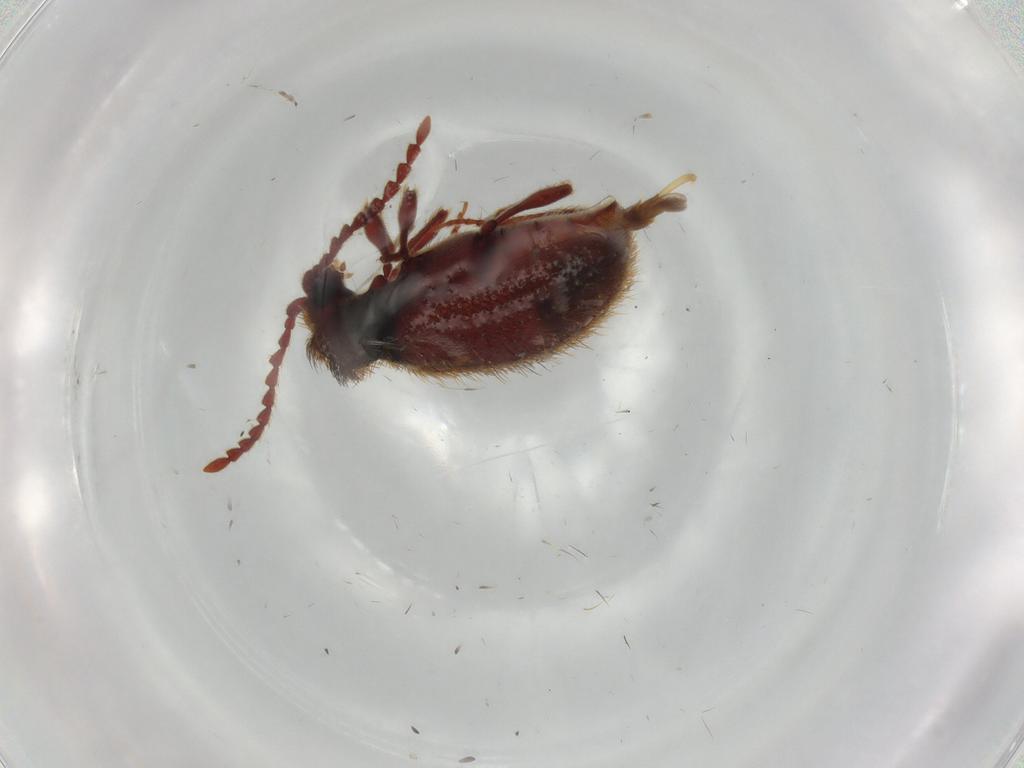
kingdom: Animalia
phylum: Arthropoda
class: Insecta
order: Coleoptera
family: Ptinidae
